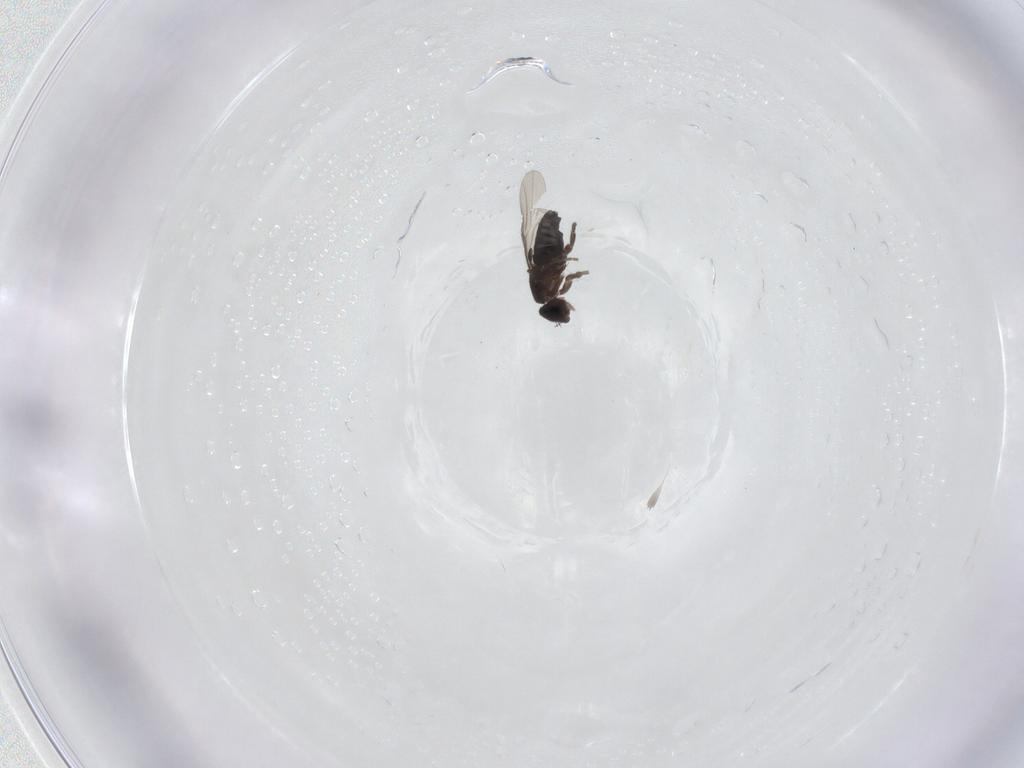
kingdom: Animalia
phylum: Arthropoda
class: Insecta
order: Diptera
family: Phoridae
